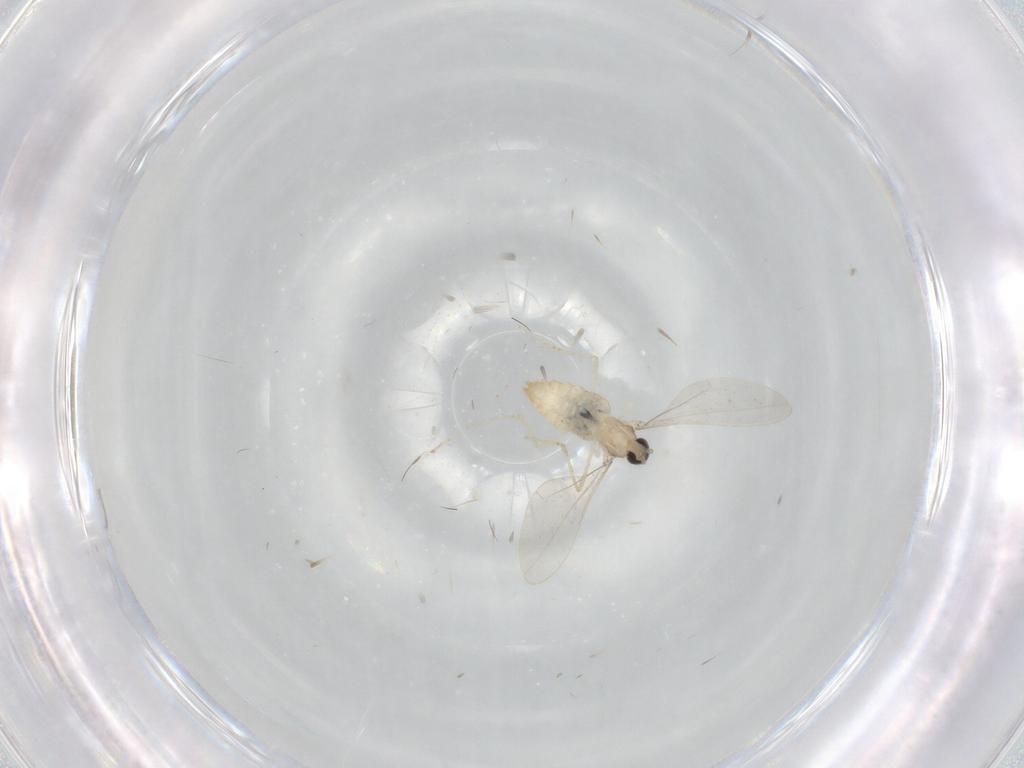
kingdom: Animalia
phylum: Arthropoda
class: Insecta
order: Diptera
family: Cecidomyiidae
